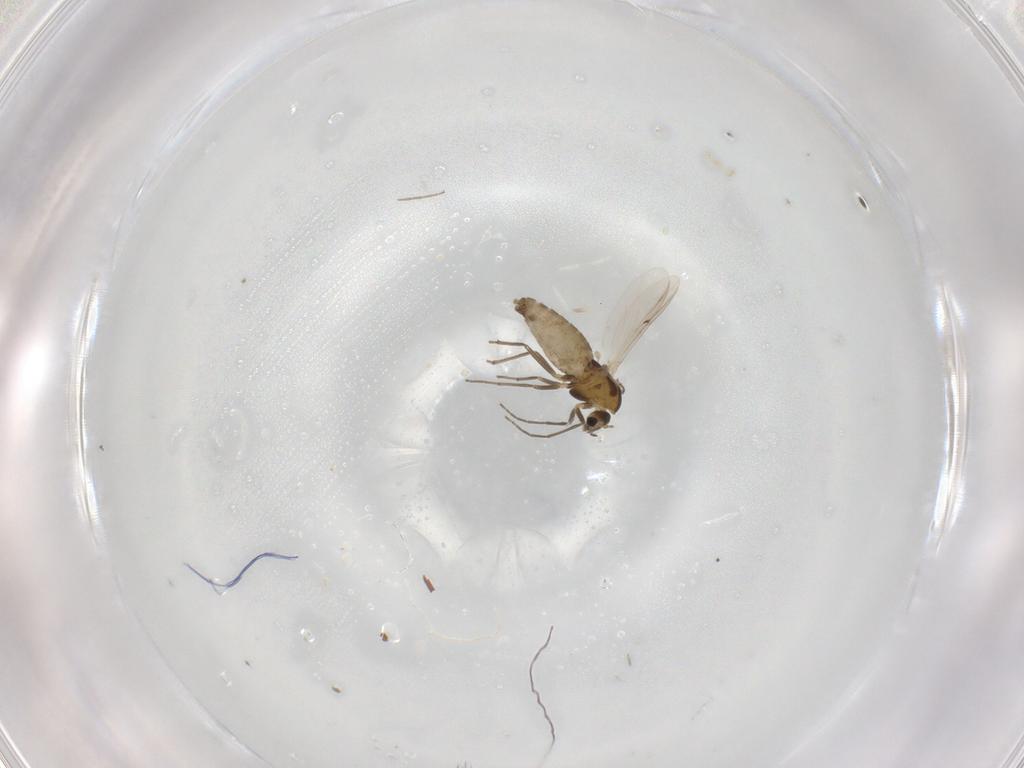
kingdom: Animalia
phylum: Arthropoda
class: Insecta
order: Diptera
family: Chironomidae
